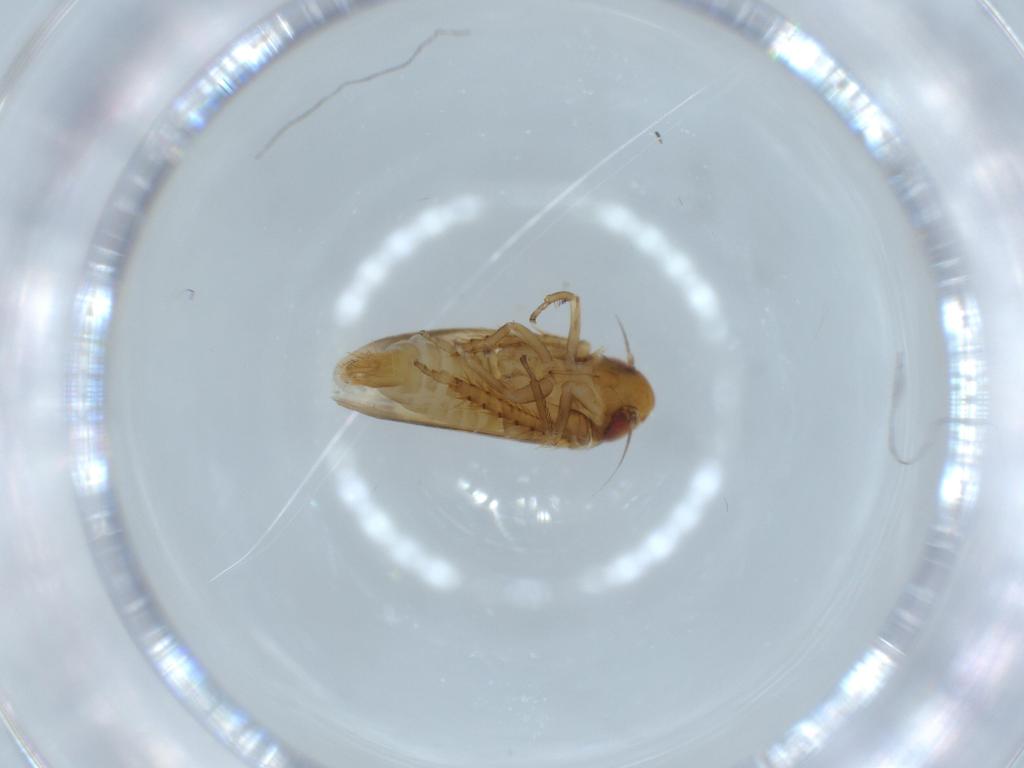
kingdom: Animalia
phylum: Arthropoda
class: Insecta
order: Hemiptera
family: Cicadellidae
